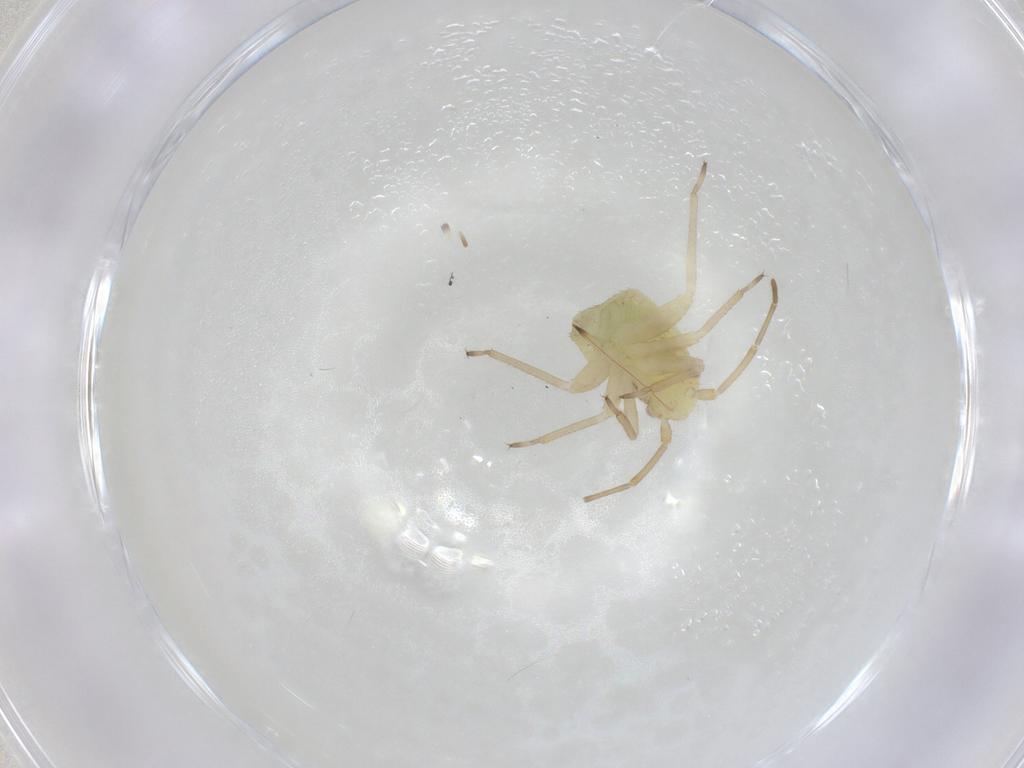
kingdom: Animalia
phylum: Arthropoda
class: Insecta
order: Hemiptera
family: Miridae
